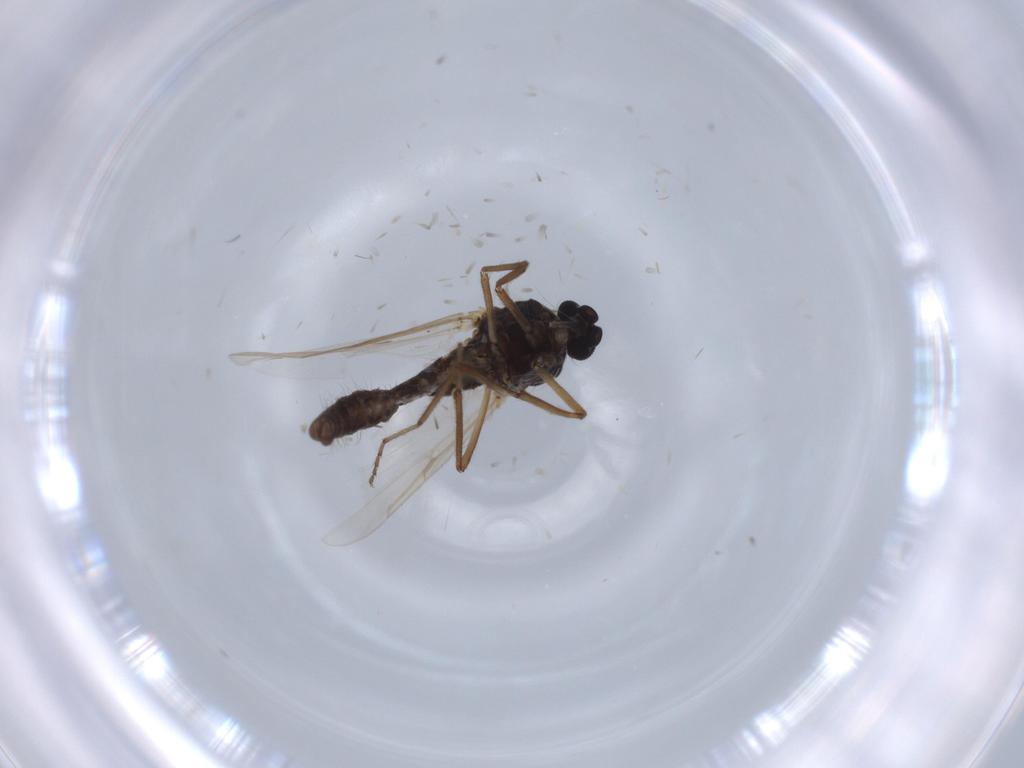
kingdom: Animalia
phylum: Arthropoda
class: Insecta
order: Diptera
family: Ceratopogonidae
